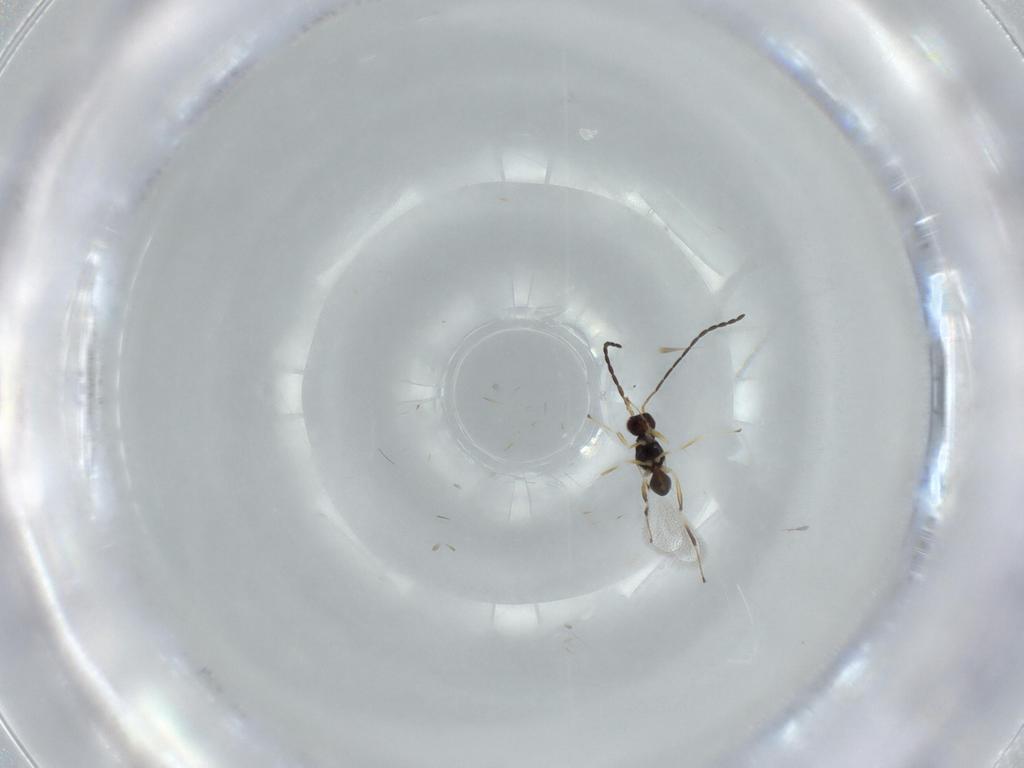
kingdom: Animalia
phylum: Arthropoda
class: Insecta
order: Hymenoptera
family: Mymaridae
